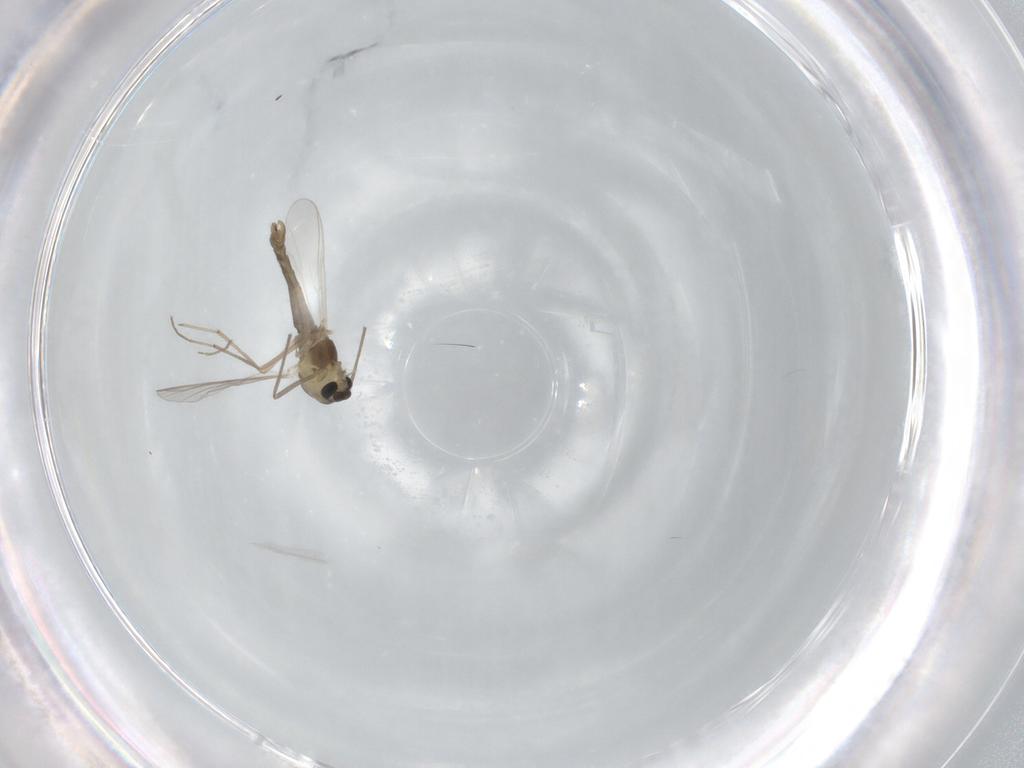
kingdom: Animalia
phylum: Arthropoda
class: Insecta
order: Diptera
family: Chironomidae
